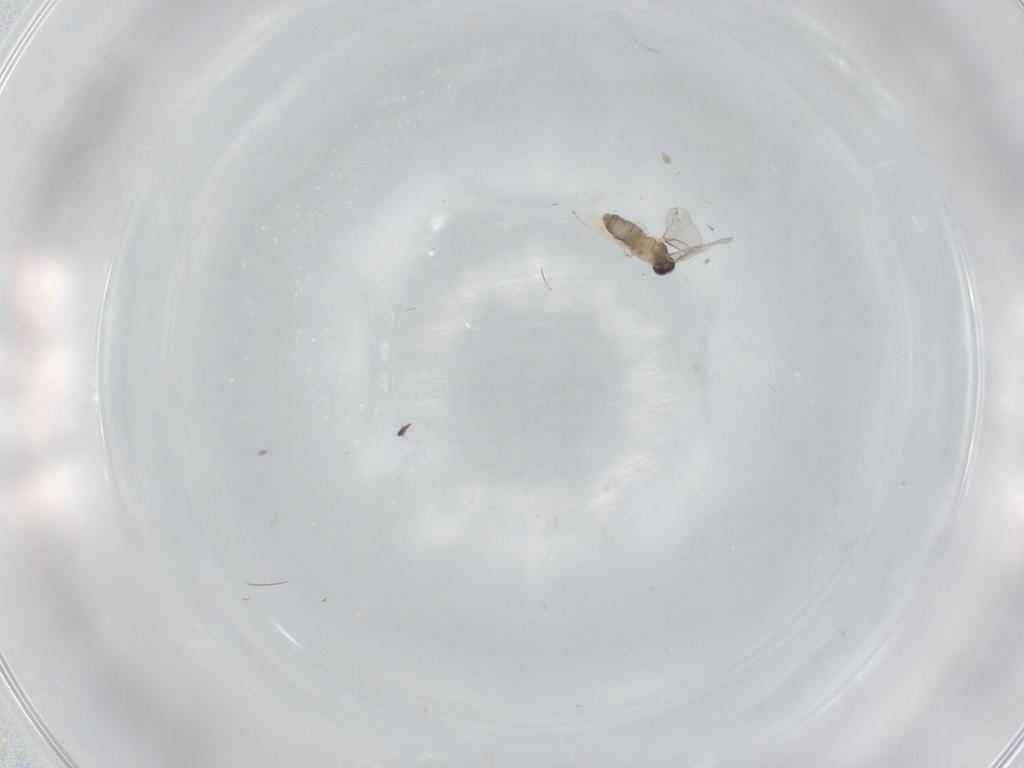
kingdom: Animalia
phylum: Arthropoda
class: Insecta
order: Diptera
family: Cecidomyiidae
